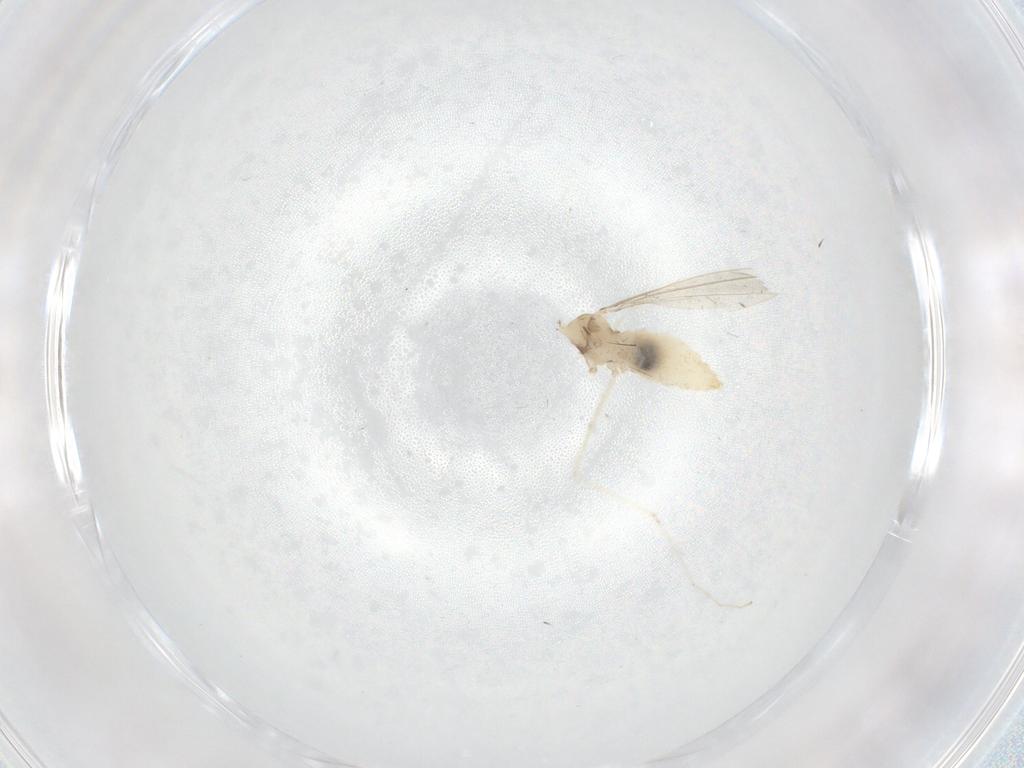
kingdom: Animalia
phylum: Arthropoda
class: Insecta
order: Diptera
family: Cecidomyiidae
